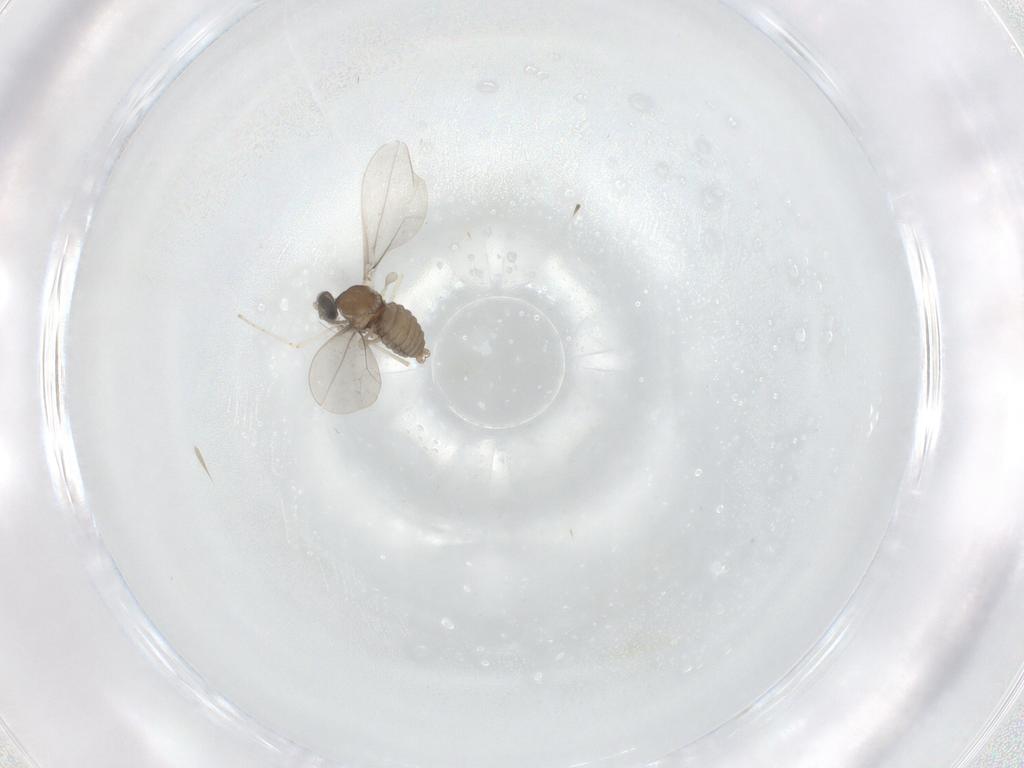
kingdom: Animalia
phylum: Arthropoda
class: Insecta
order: Diptera
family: Cecidomyiidae
